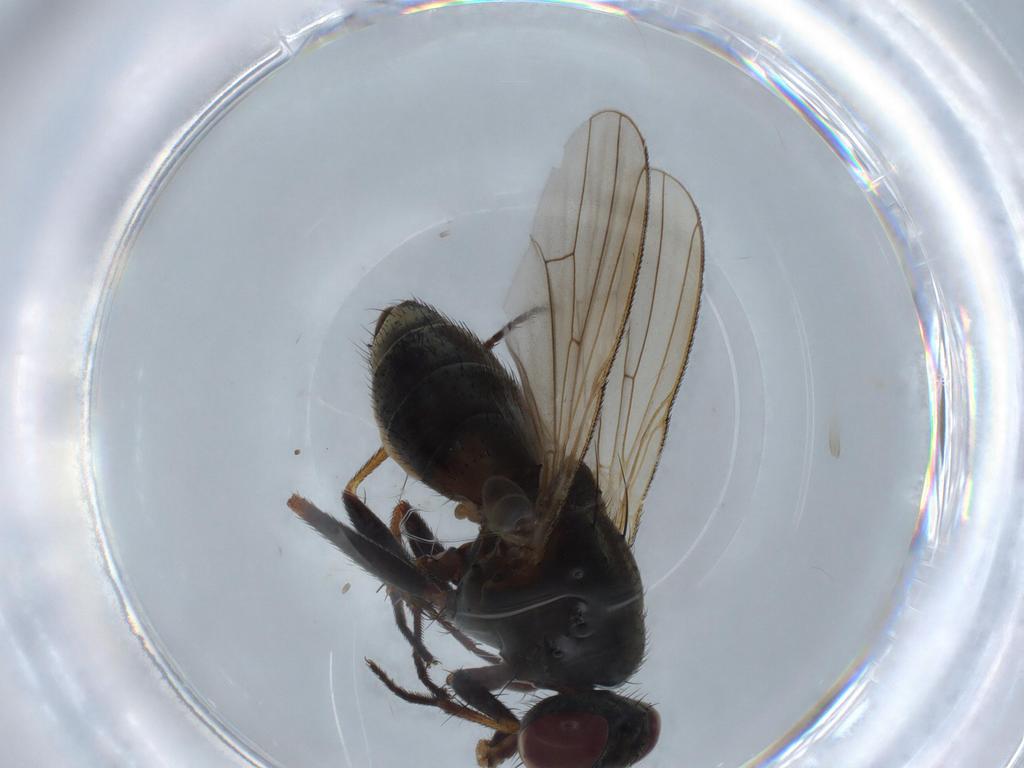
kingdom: Animalia
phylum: Arthropoda
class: Insecta
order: Diptera
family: Muscidae
